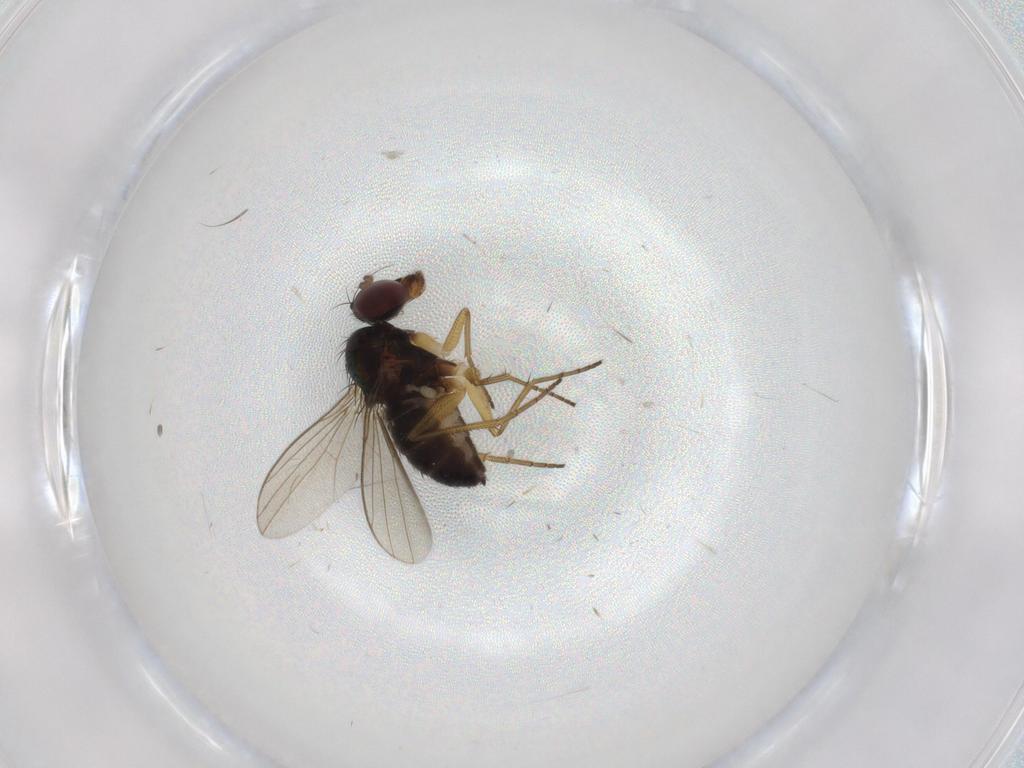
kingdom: Animalia
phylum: Arthropoda
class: Insecta
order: Diptera
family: Dolichopodidae
